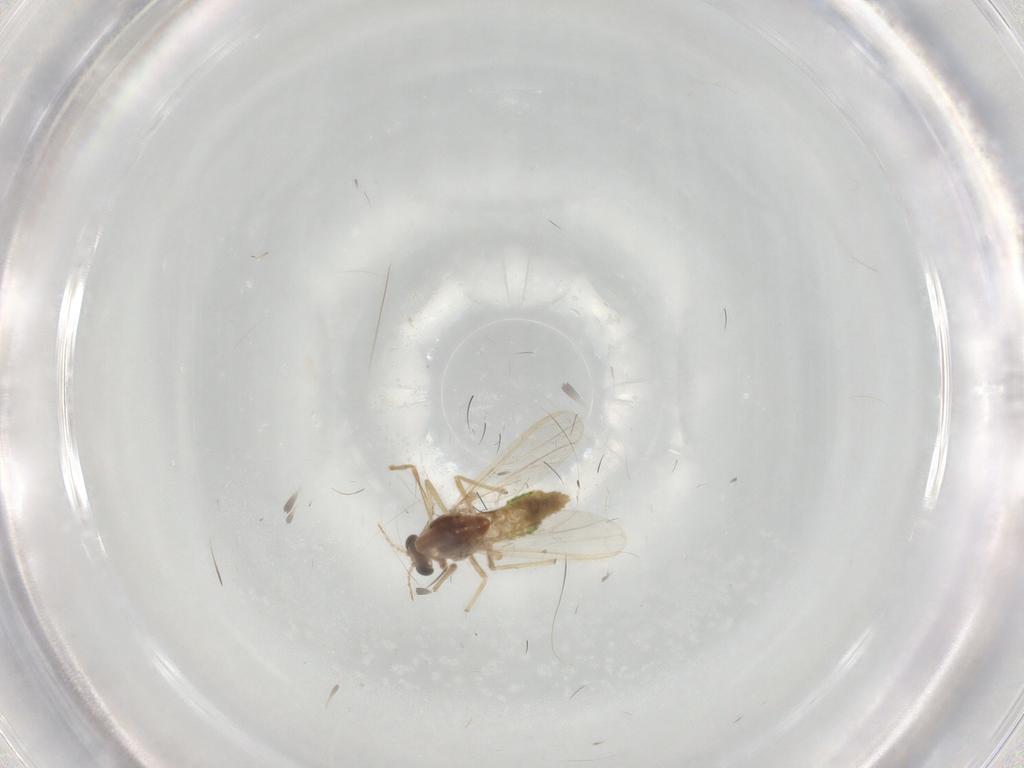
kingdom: Animalia
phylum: Arthropoda
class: Insecta
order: Diptera
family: Chironomidae
